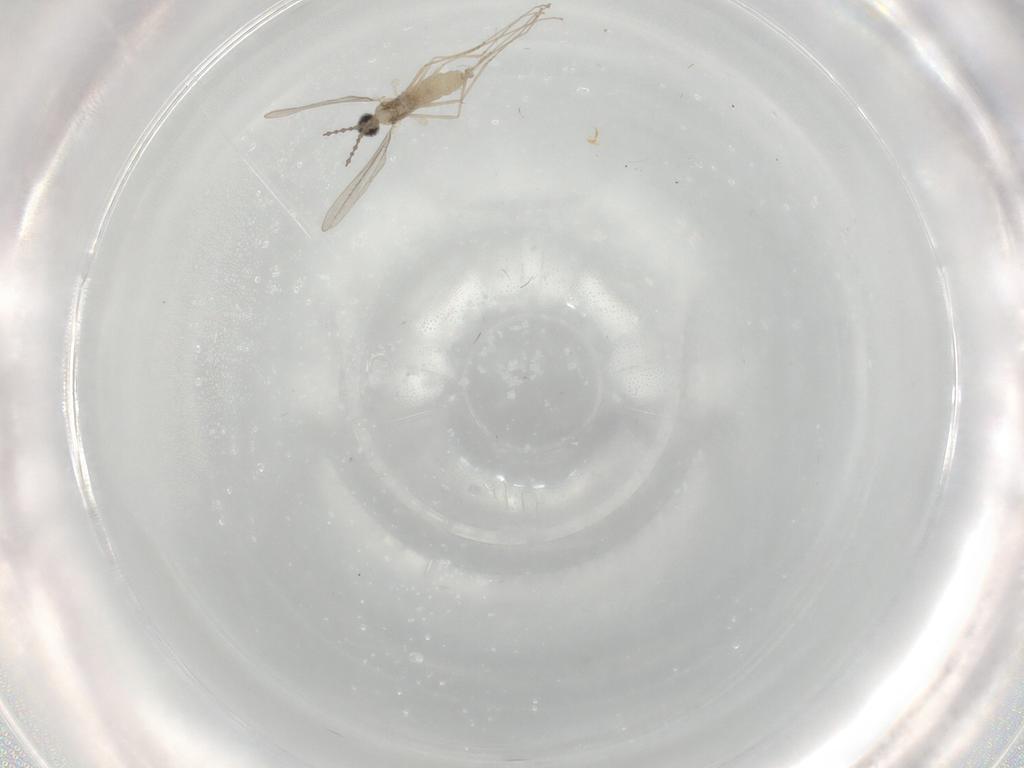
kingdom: Animalia
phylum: Arthropoda
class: Insecta
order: Diptera
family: Cecidomyiidae
